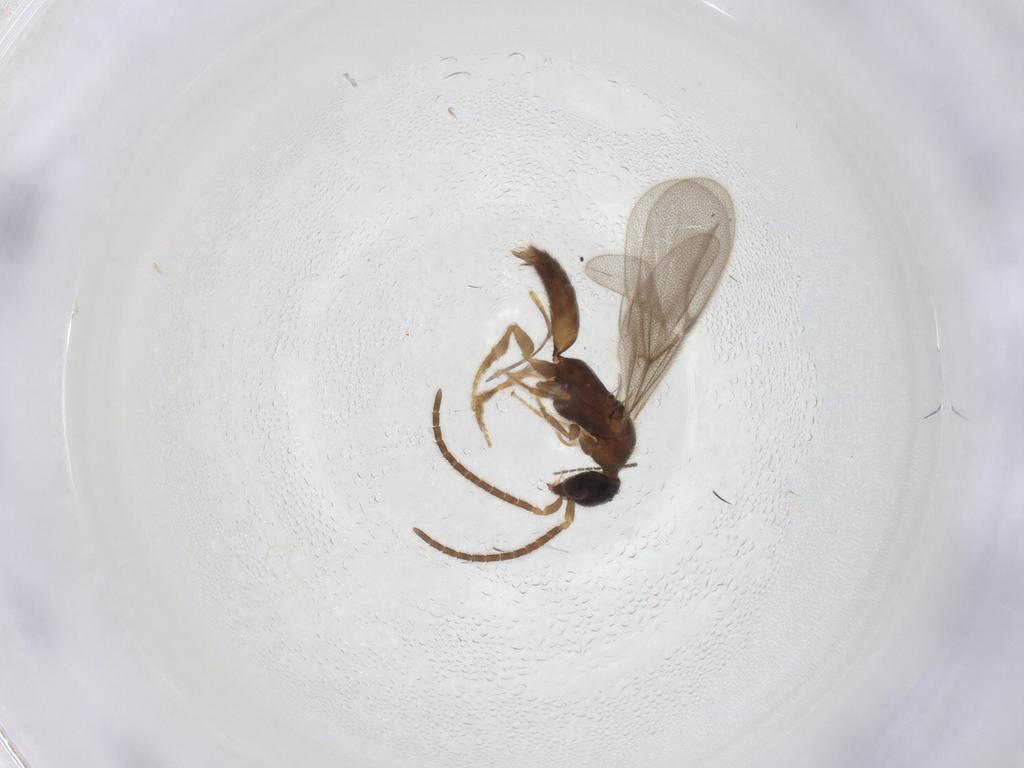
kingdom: Animalia
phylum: Arthropoda
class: Insecta
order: Hymenoptera
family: Bethylidae
